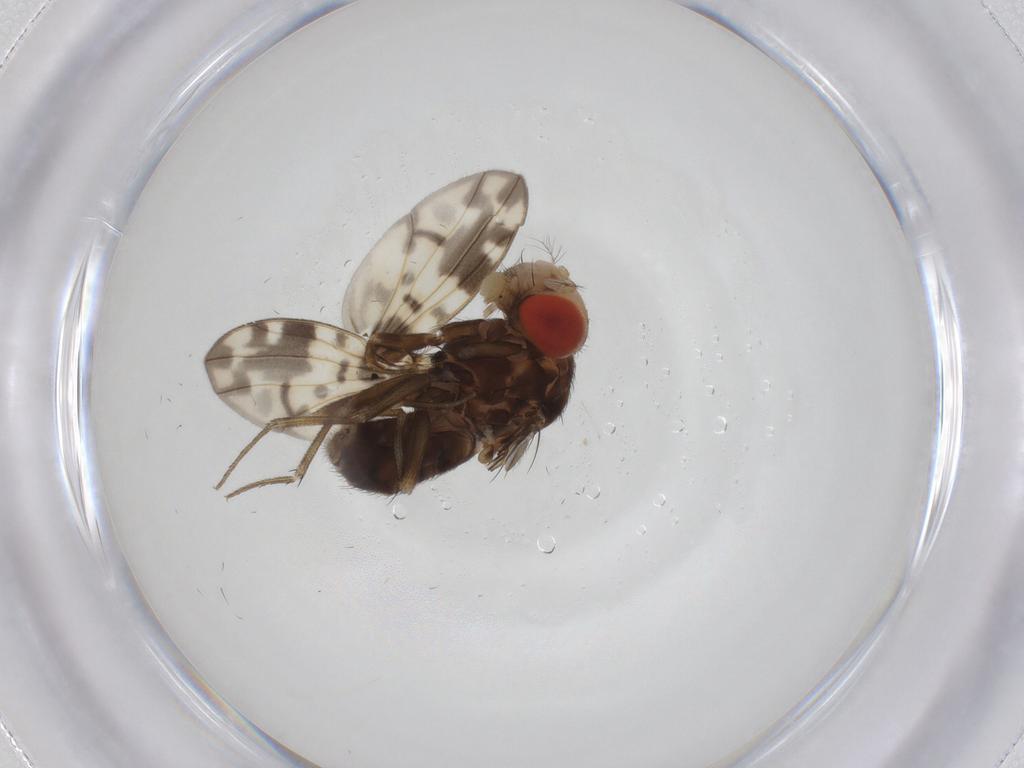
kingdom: Animalia
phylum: Arthropoda
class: Insecta
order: Diptera
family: Drosophilidae
